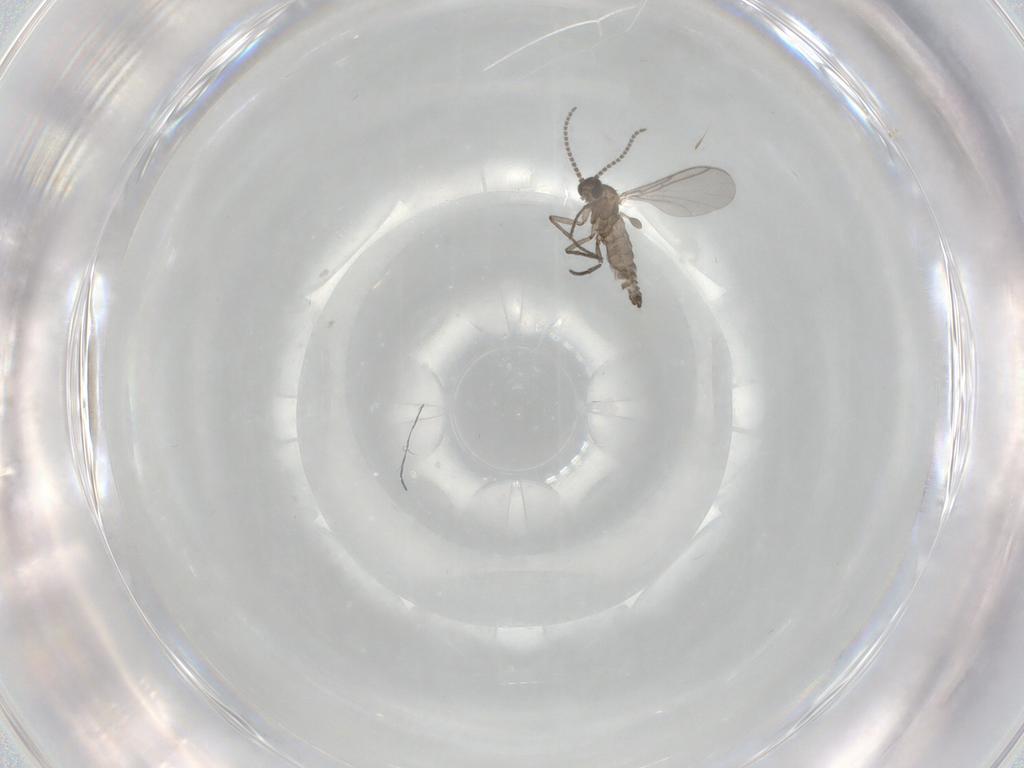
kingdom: Animalia
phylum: Arthropoda
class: Insecta
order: Diptera
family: Sciaridae
